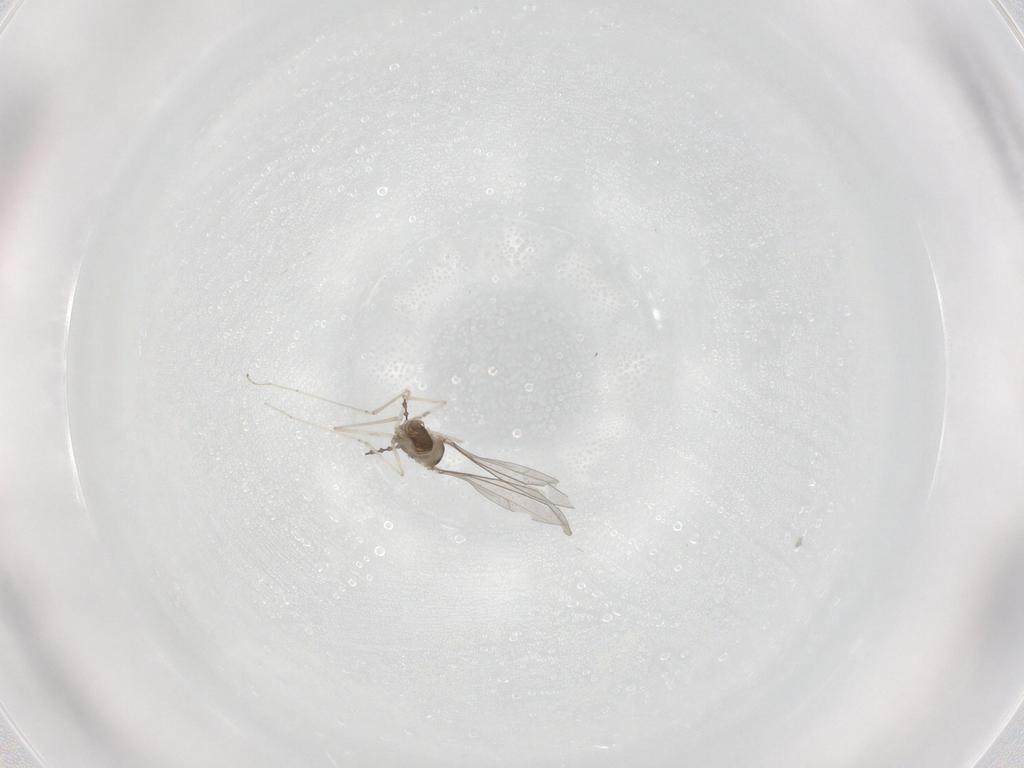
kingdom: Animalia
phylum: Arthropoda
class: Insecta
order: Diptera
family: Cecidomyiidae
